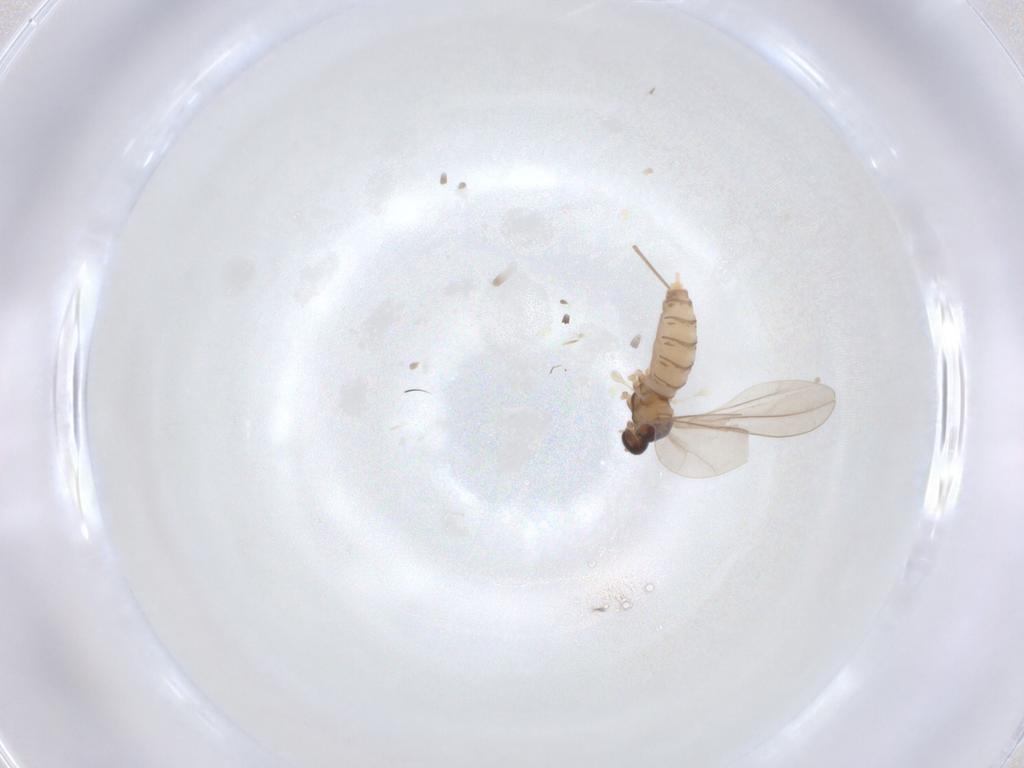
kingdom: Animalia
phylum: Arthropoda
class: Insecta
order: Diptera
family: Cecidomyiidae
